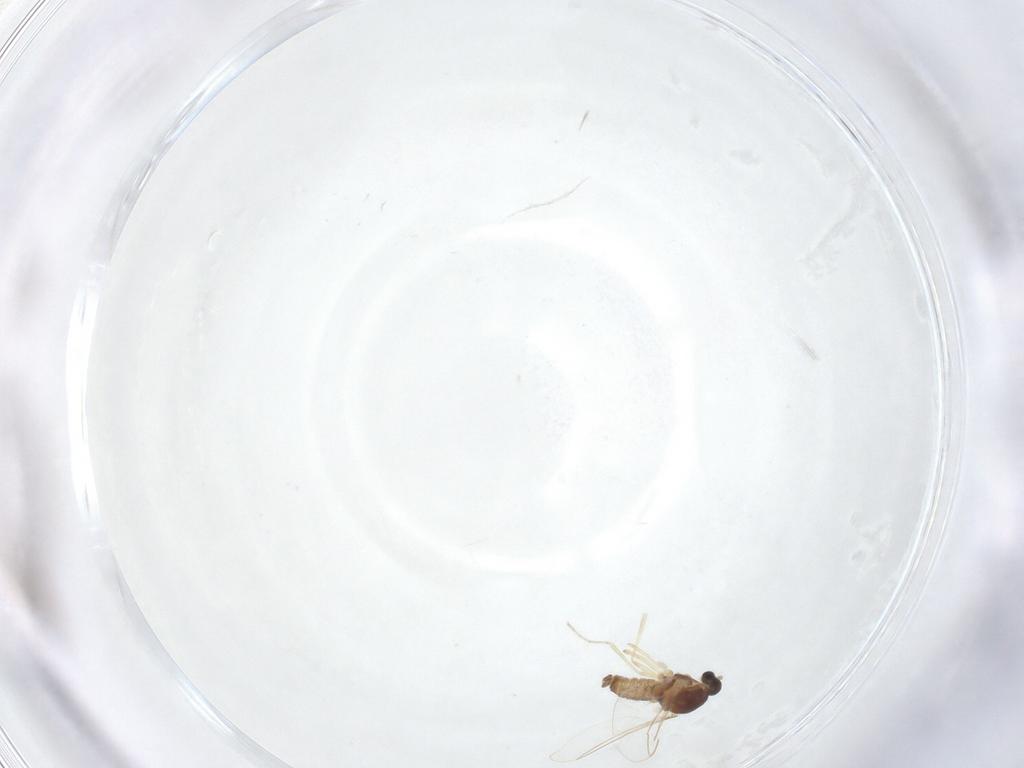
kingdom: Animalia
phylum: Arthropoda
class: Insecta
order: Diptera
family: Cecidomyiidae
